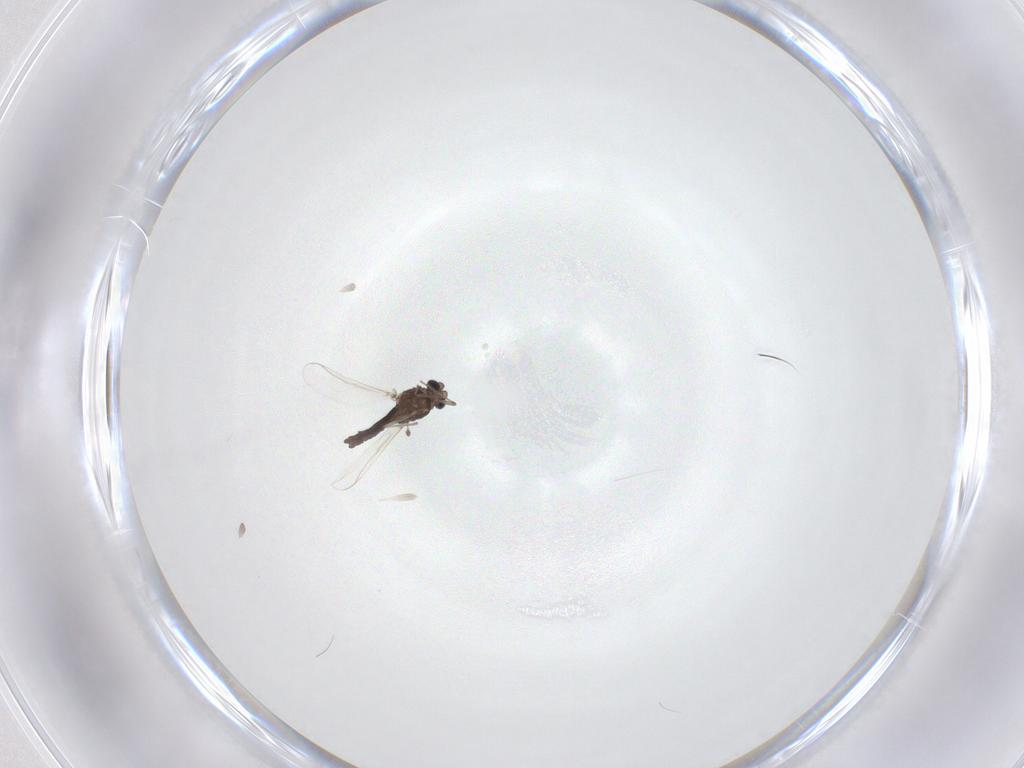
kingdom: Animalia
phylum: Arthropoda
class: Insecta
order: Diptera
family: Chironomidae
